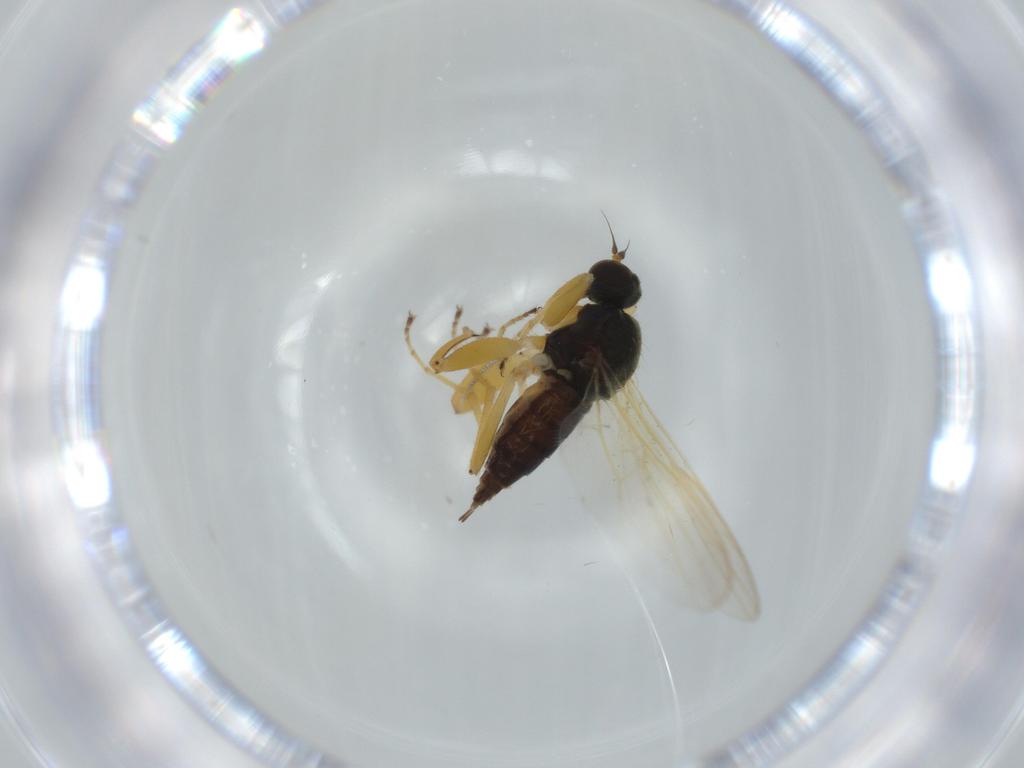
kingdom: Animalia
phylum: Arthropoda
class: Insecta
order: Diptera
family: Hybotidae
